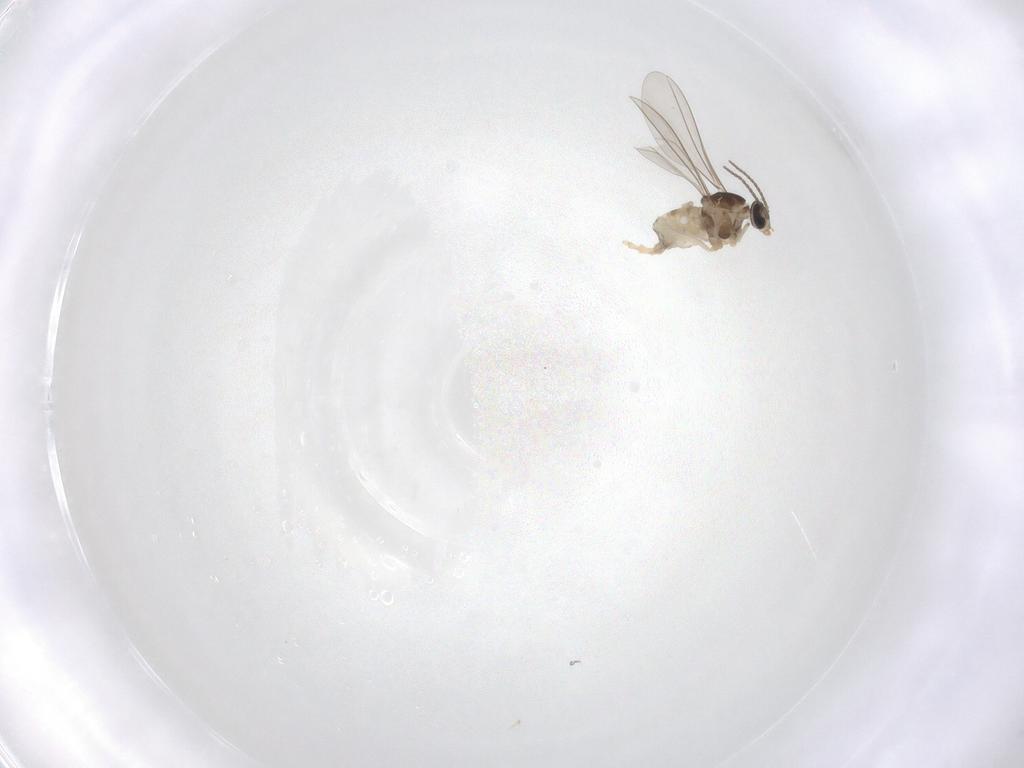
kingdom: Animalia
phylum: Arthropoda
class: Insecta
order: Diptera
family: Cecidomyiidae
